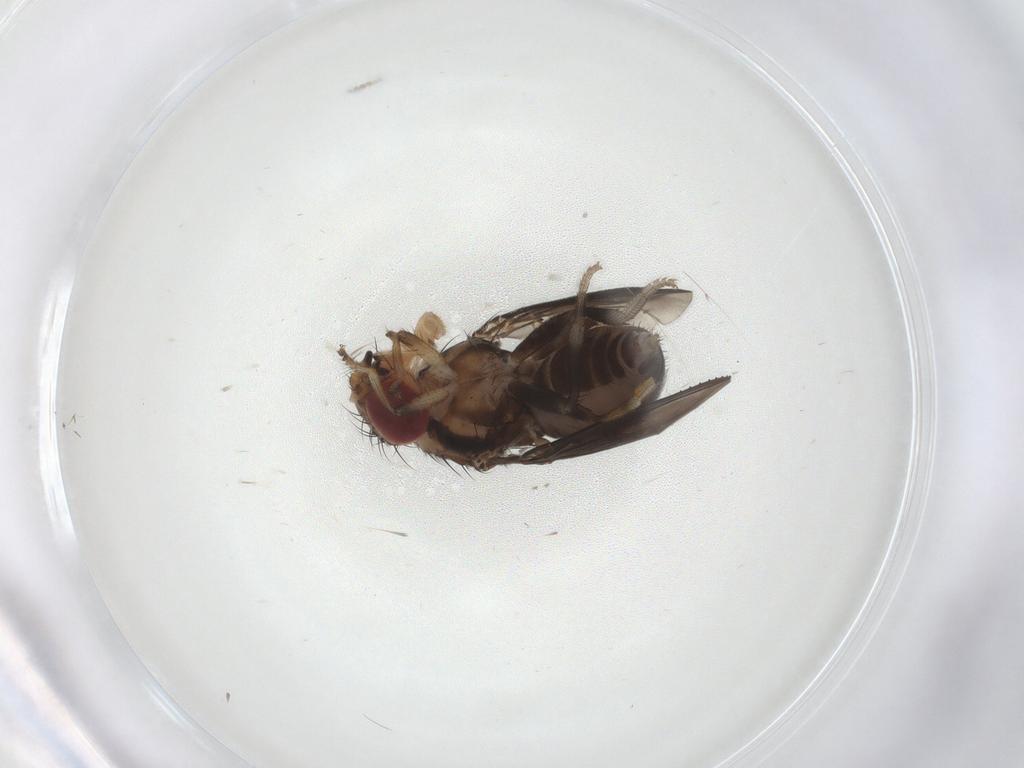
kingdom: Animalia
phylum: Arthropoda
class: Insecta
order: Diptera
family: Drosophilidae
